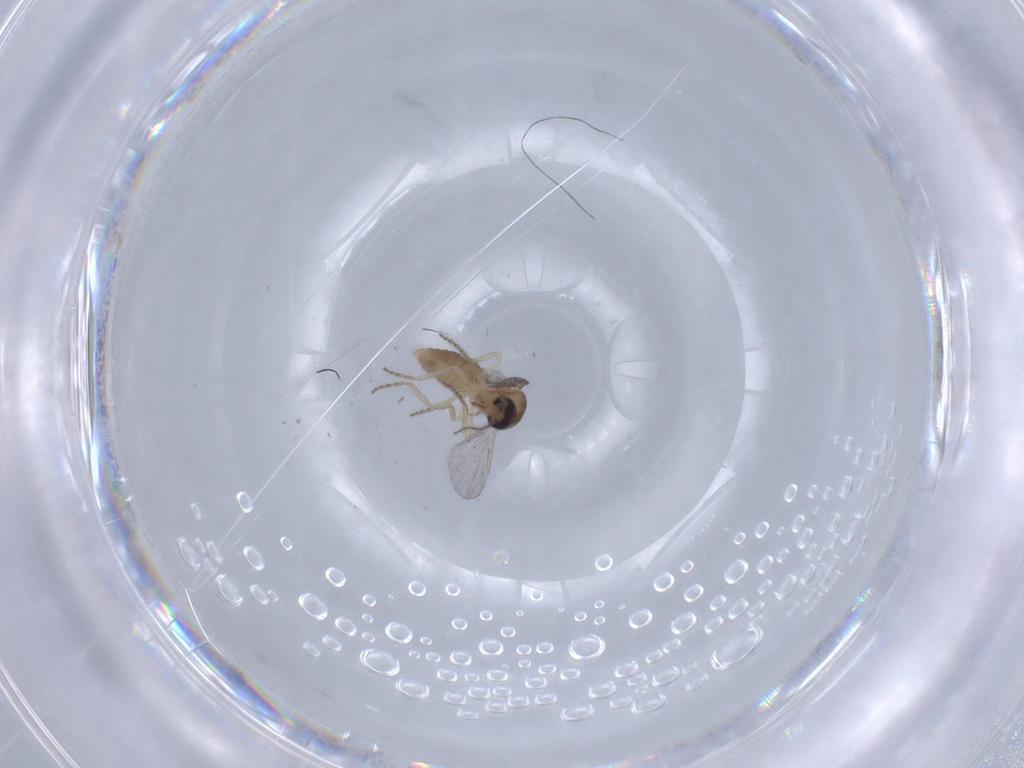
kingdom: Animalia
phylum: Arthropoda
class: Insecta
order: Diptera
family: Ceratopogonidae
